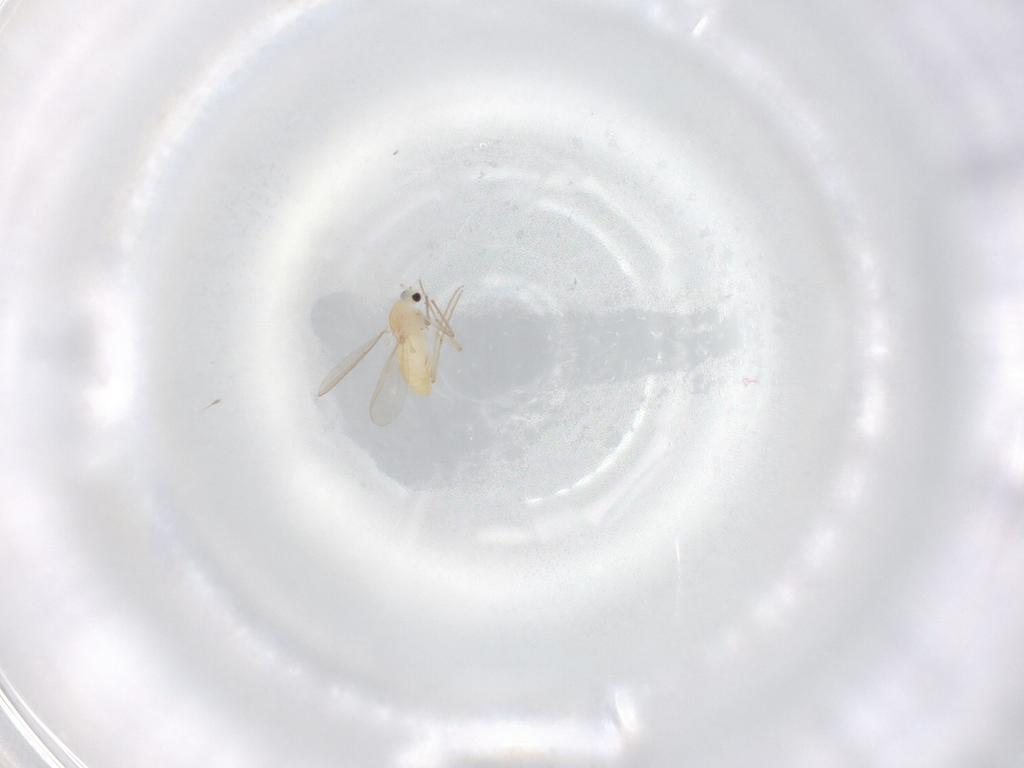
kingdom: Animalia
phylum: Arthropoda
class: Insecta
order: Diptera
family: Chironomidae
